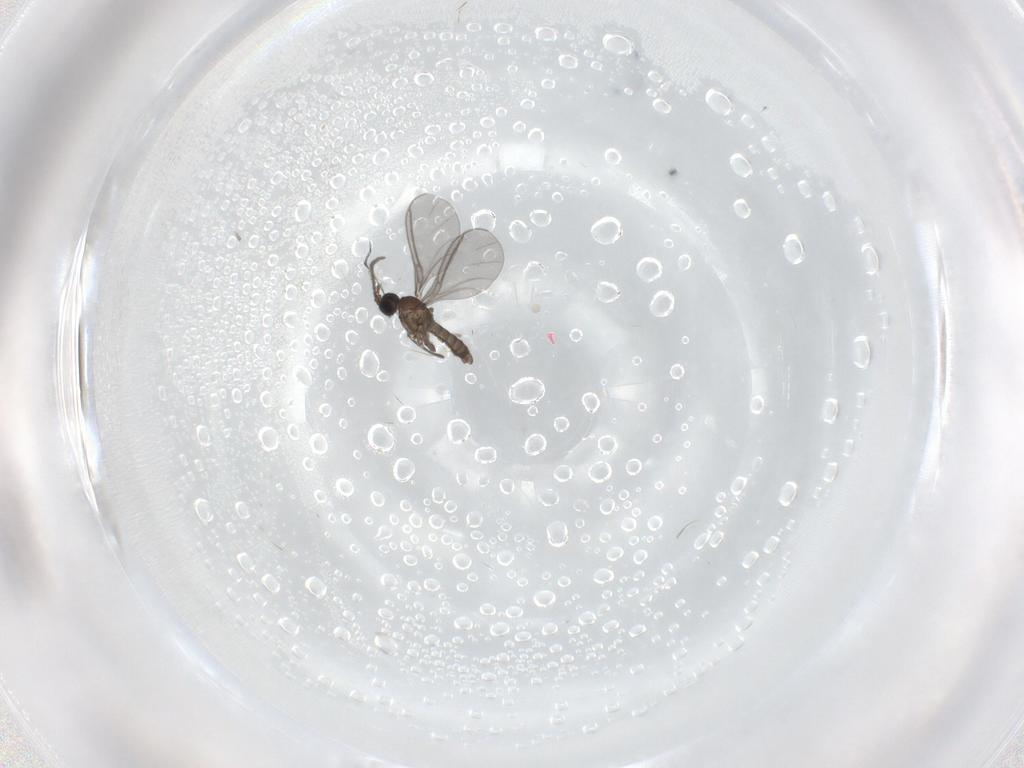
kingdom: Animalia
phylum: Arthropoda
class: Insecta
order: Diptera
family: Sciaridae
